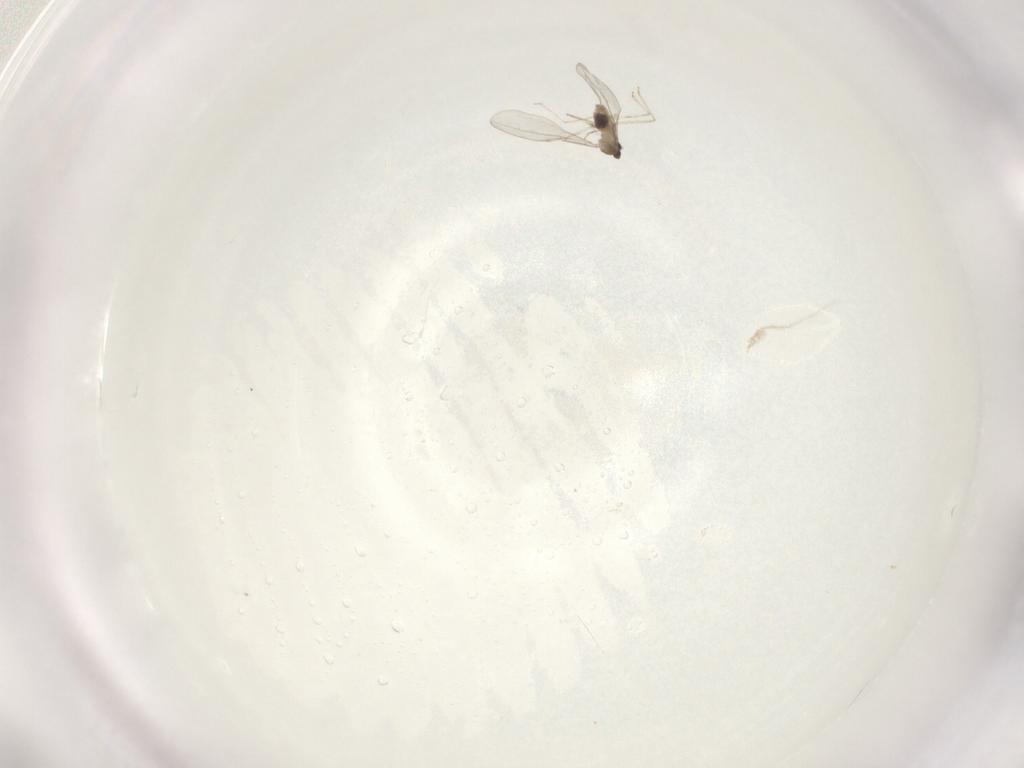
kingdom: Animalia
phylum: Arthropoda
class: Insecta
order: Diptera
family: Cecidomyiidae
